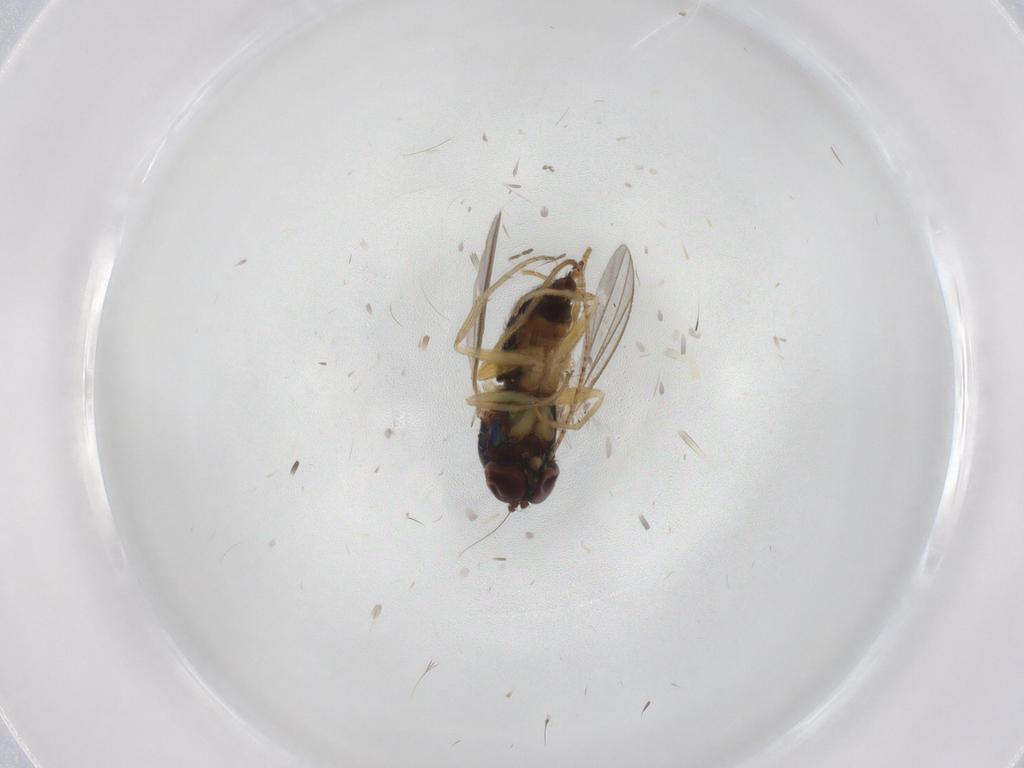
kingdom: Animalia
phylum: Arthropoda
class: Insecta
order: Diptera
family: Dolichopodidae
